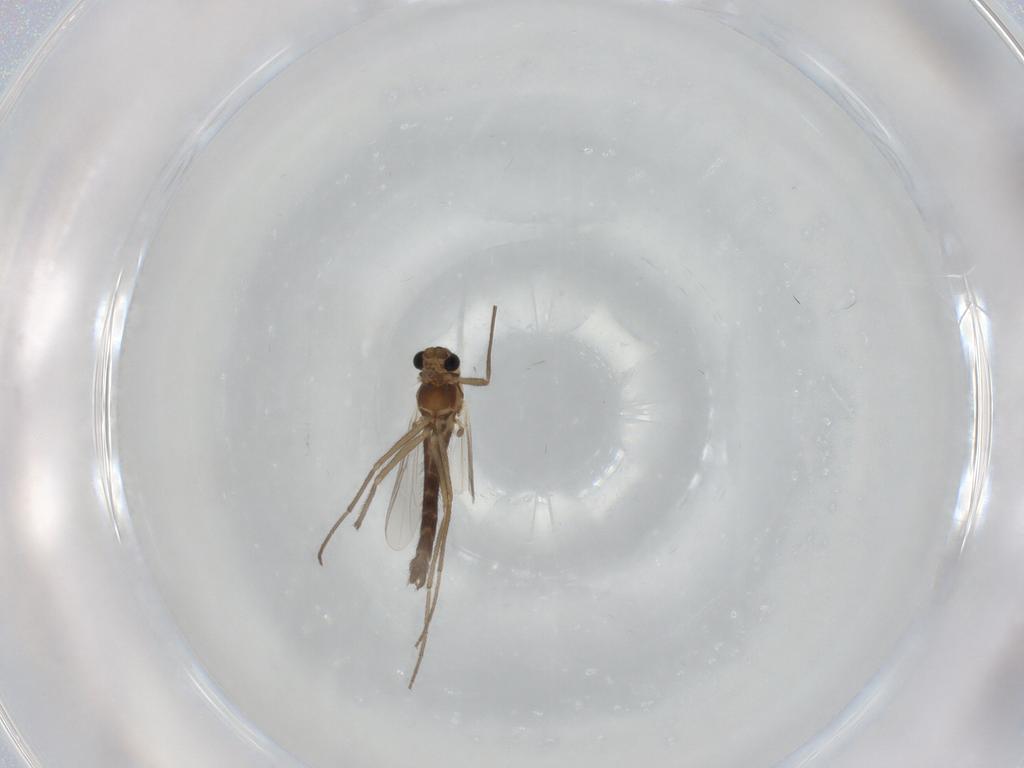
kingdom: Animalia
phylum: Arthropoda
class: Insecta
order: Diptera
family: Chironomidae
